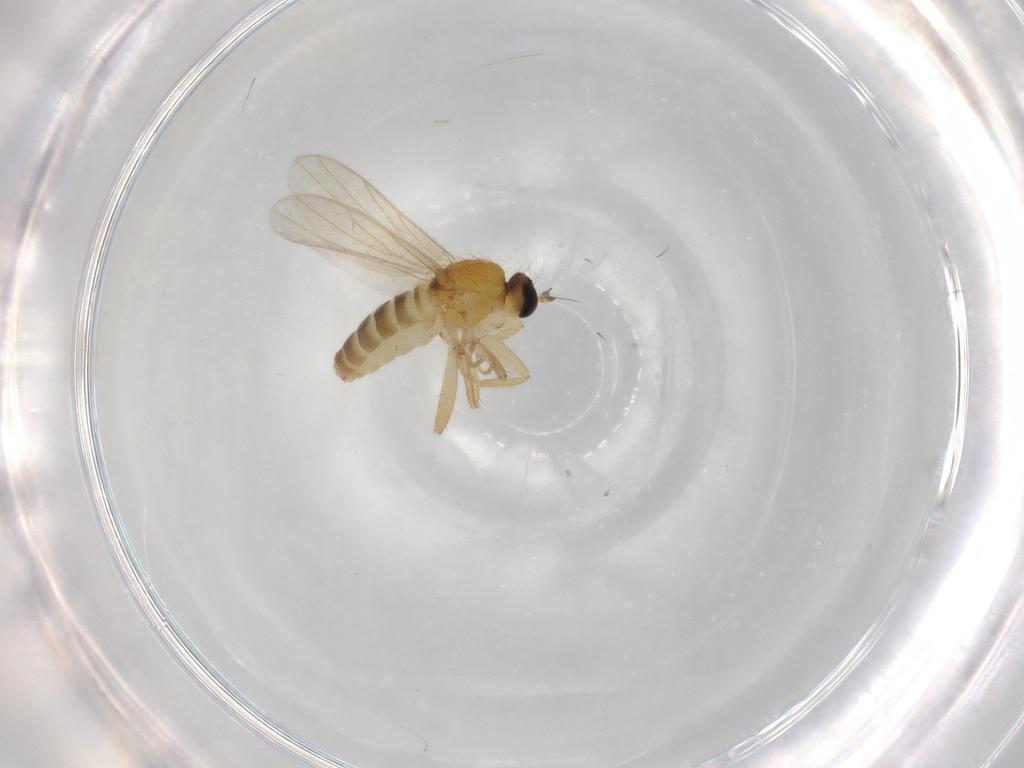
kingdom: Animalia
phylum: Arthropoda
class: Insecta
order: Diptera
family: Hybotidae
